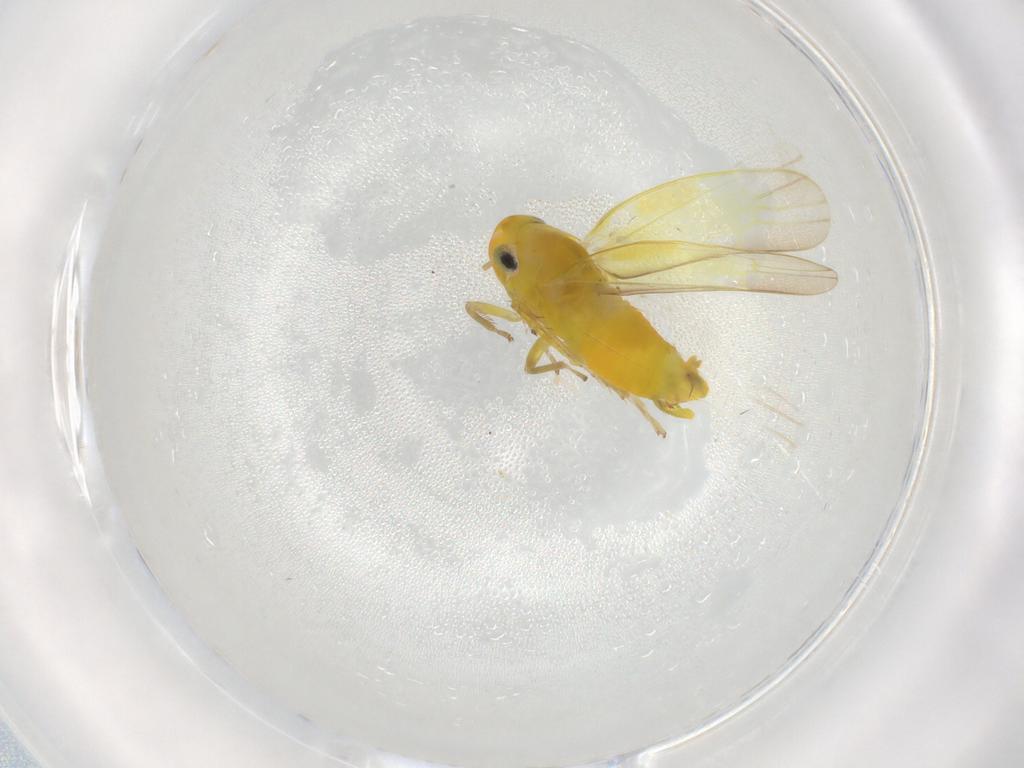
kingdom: Animalia
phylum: Arthropoda
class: Insecta
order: Hemiptera
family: Cicadellidae
